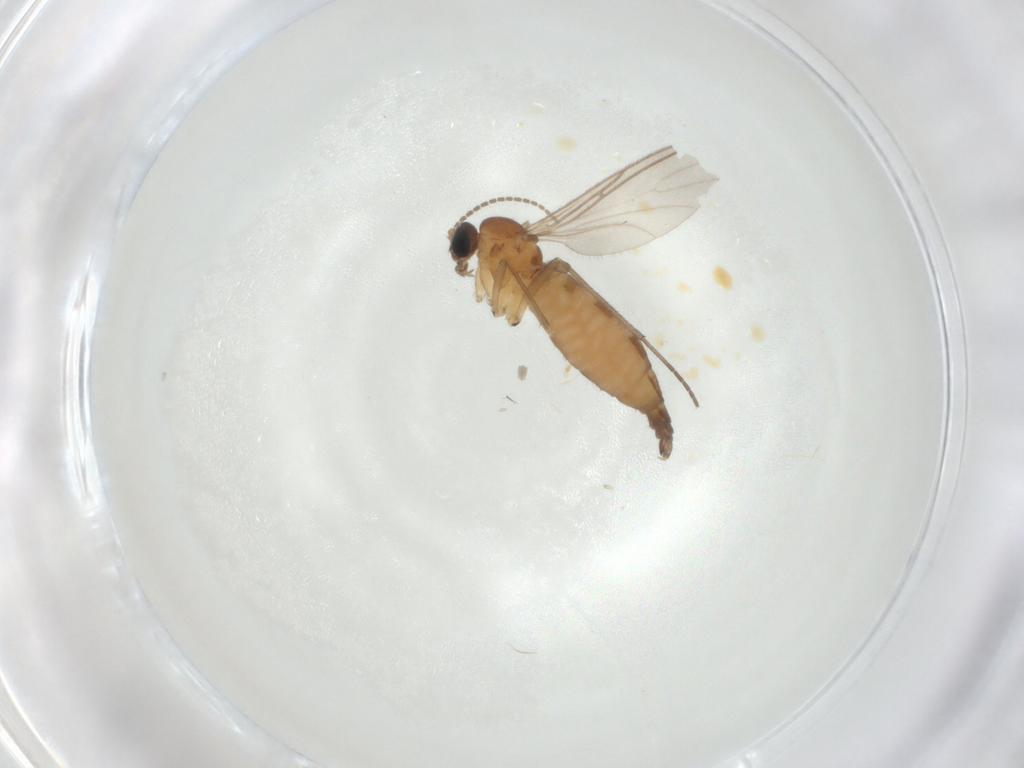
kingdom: Animalia
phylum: Arthropoda
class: Insecta
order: Diptera
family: Sciaridae
